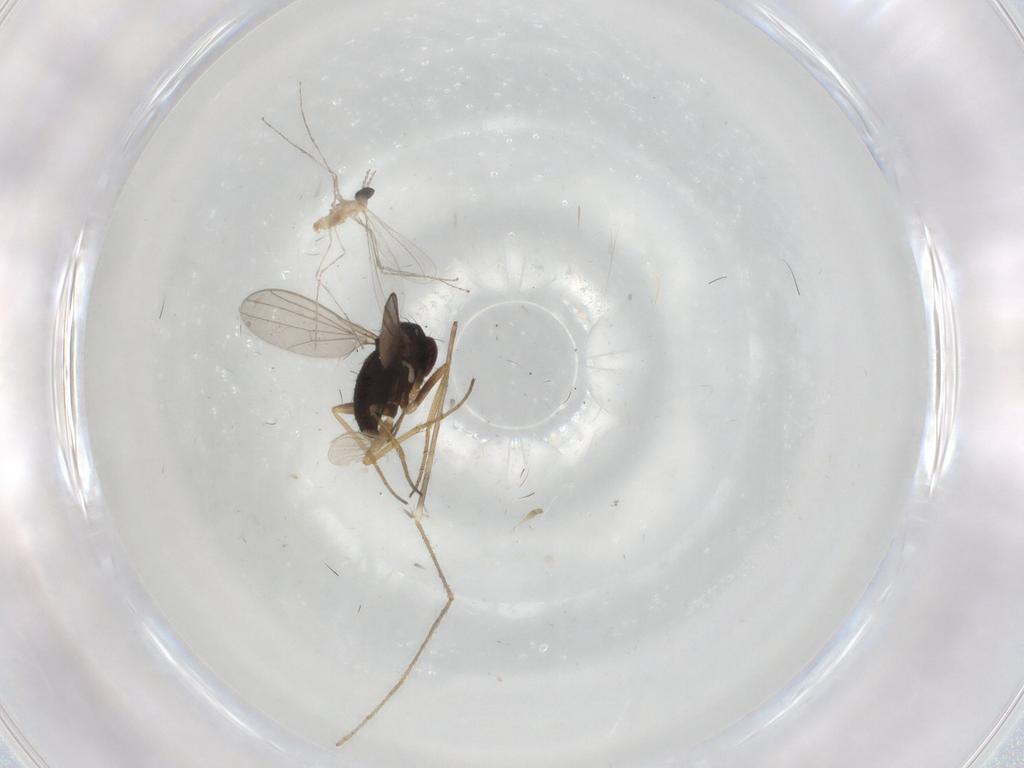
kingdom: Animalia
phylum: Arthropoda
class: Insecta
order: Diptera
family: Dolichopodidae
